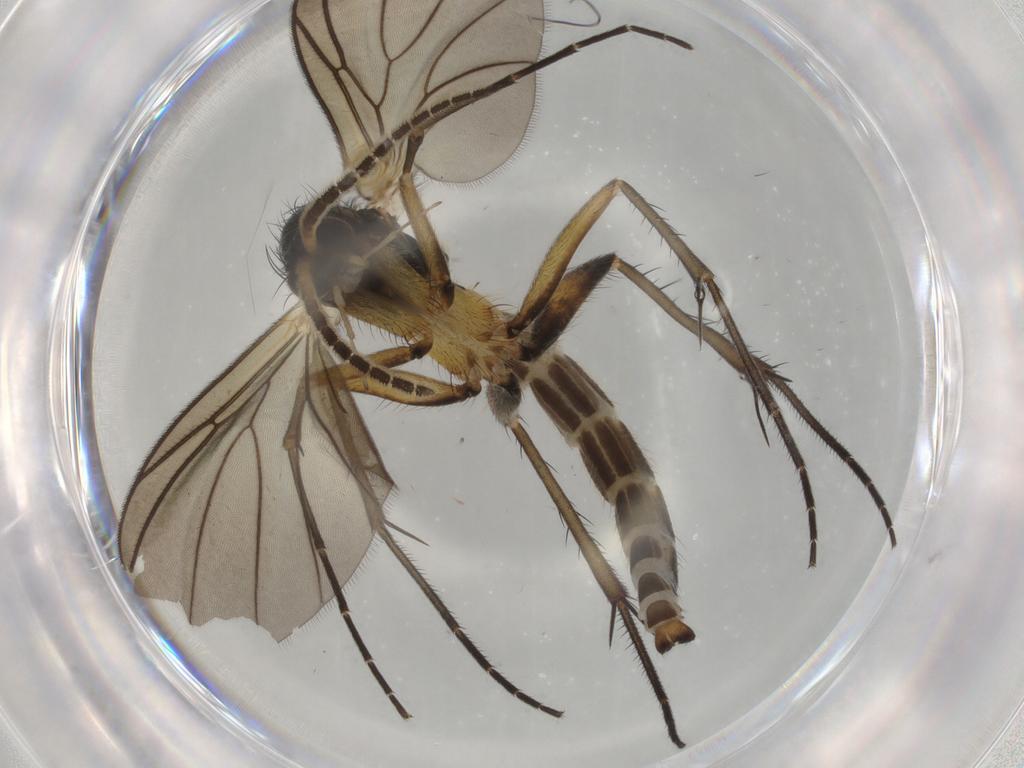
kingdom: Animalia
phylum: Arthropoda
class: Insecta
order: Diptera
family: Mycetophilidae
